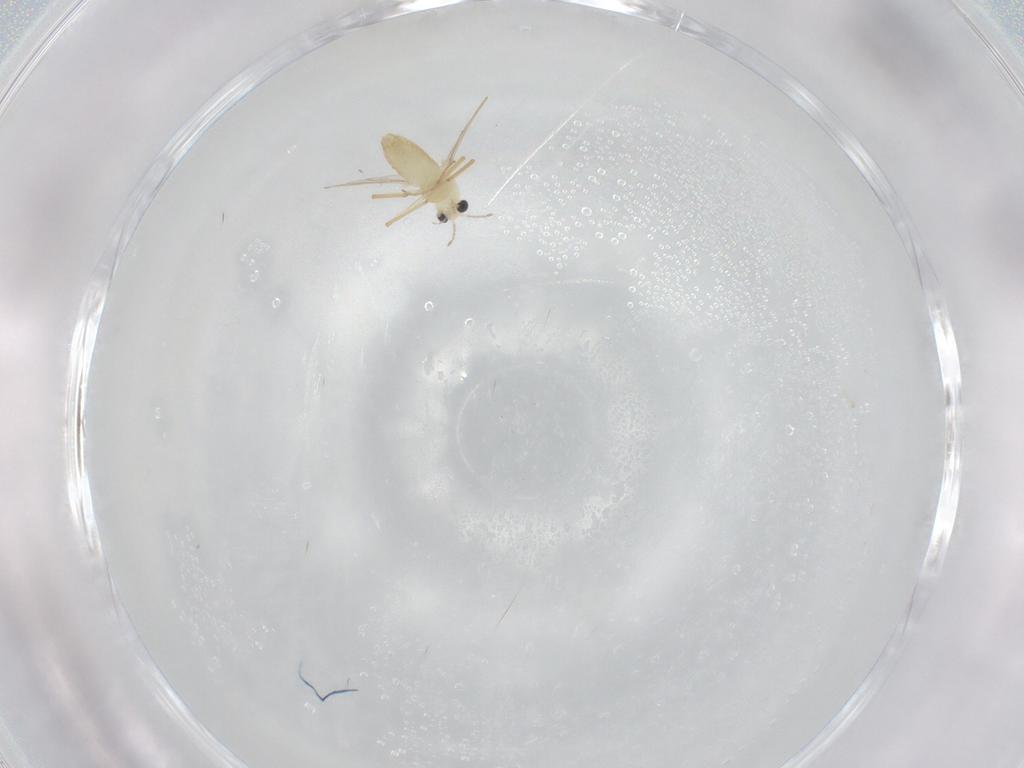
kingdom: Animalia
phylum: Arthropoda
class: Insecta
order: Diptera
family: Chironomidae
